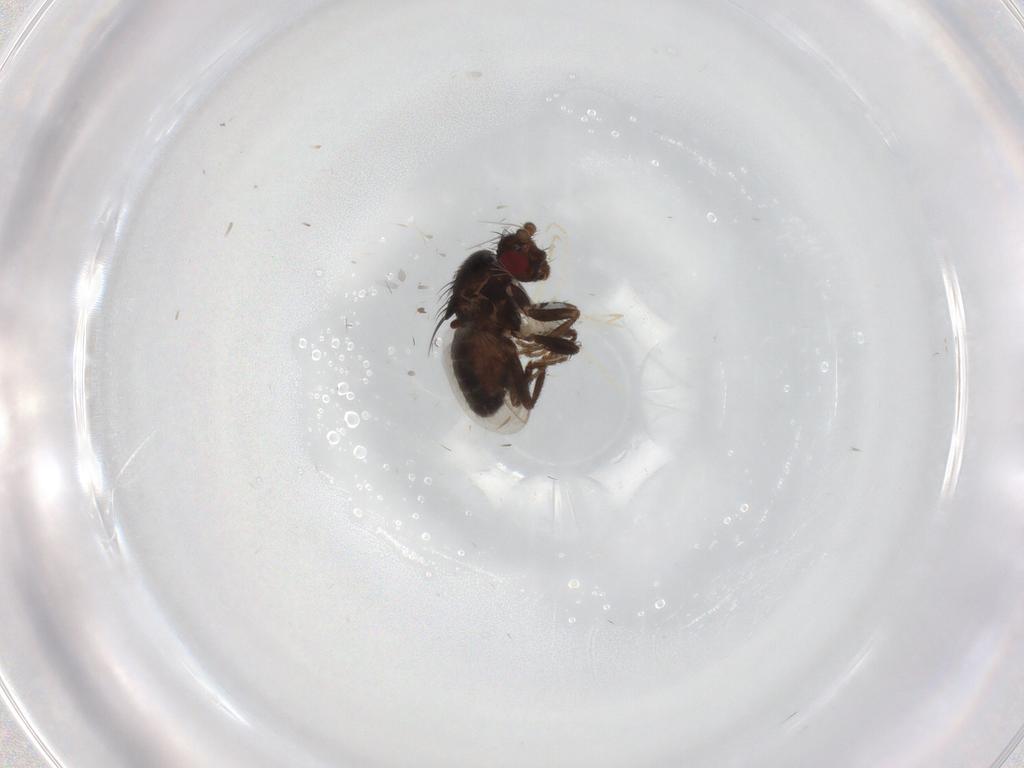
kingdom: Animalia
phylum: Arthropoda
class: Insecta
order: Diptera
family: Sphaeroceridae
